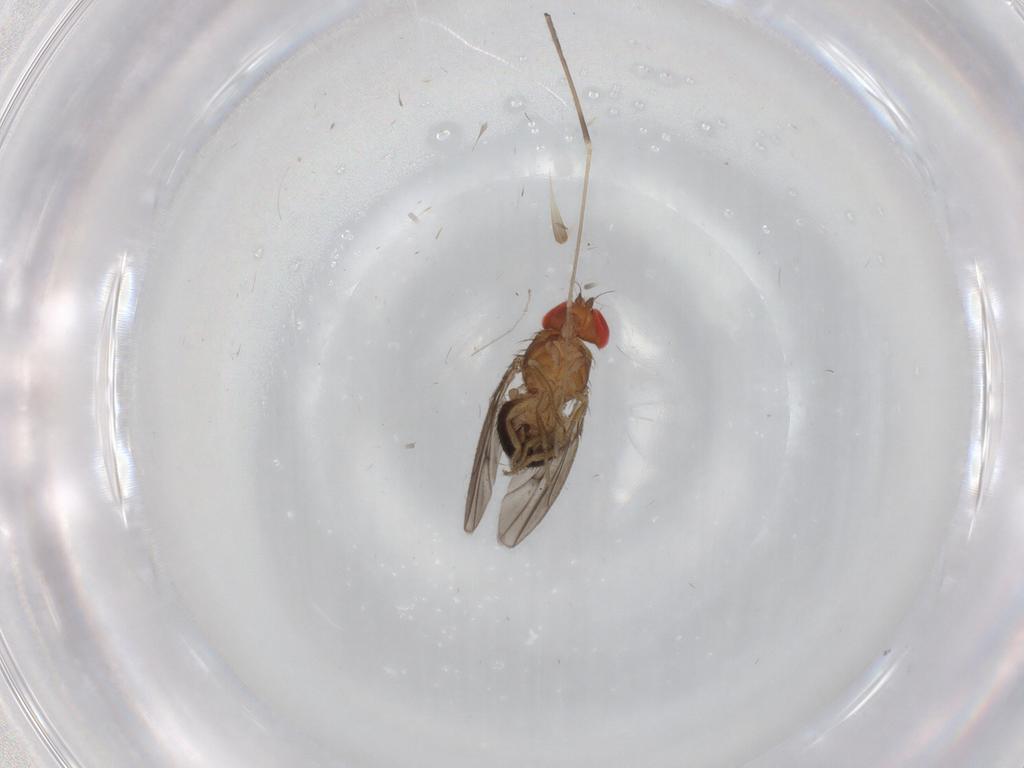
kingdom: Animalia
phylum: Arthropoda
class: Insecta
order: Diptera
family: Drosophilidae
